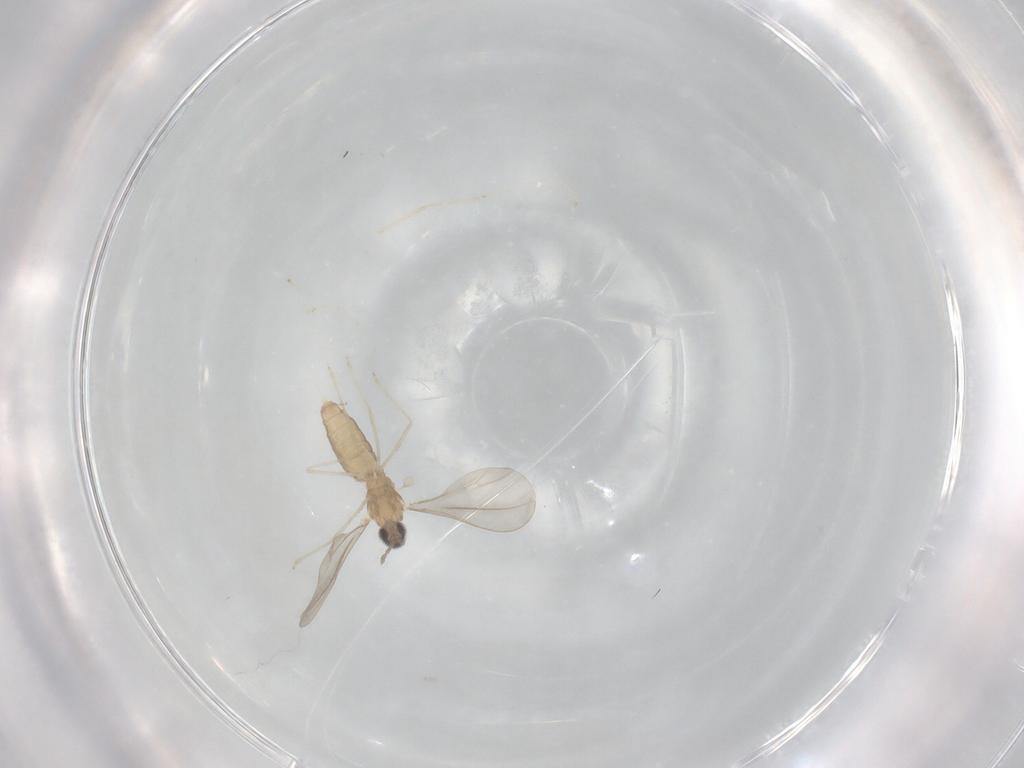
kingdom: Animalia
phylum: Arthropoda
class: Insecta
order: Diptera
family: Cecidomyiidae
